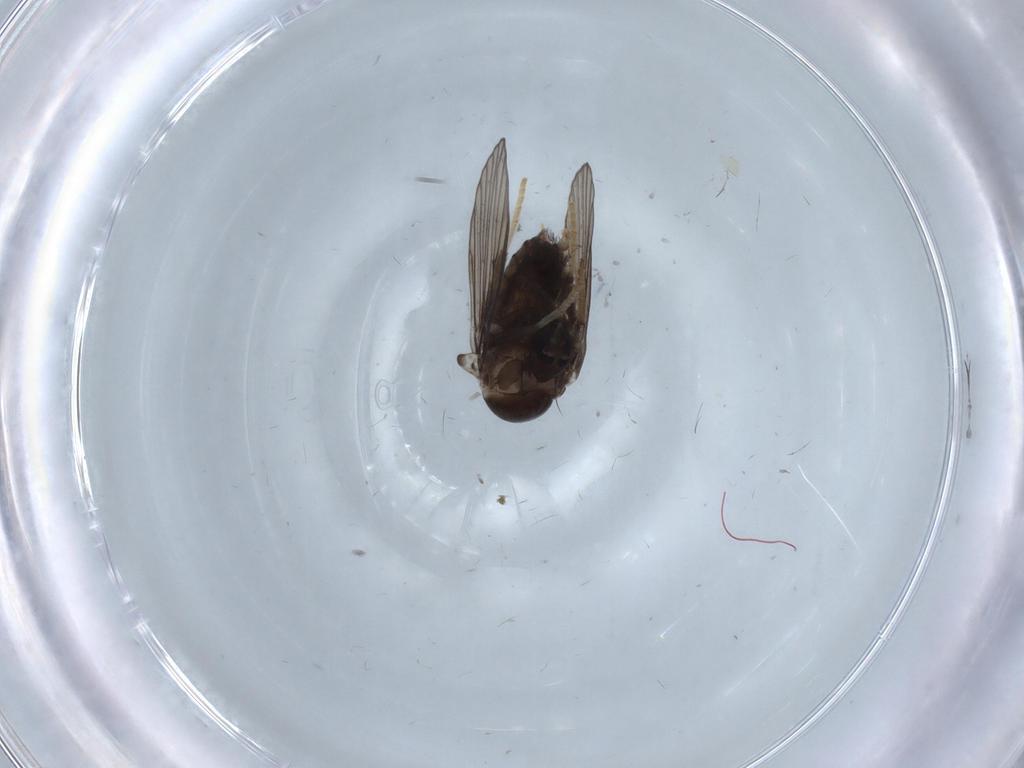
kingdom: Animalia
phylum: Arthropoda
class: Insecta
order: Diptera
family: Psychodidae
